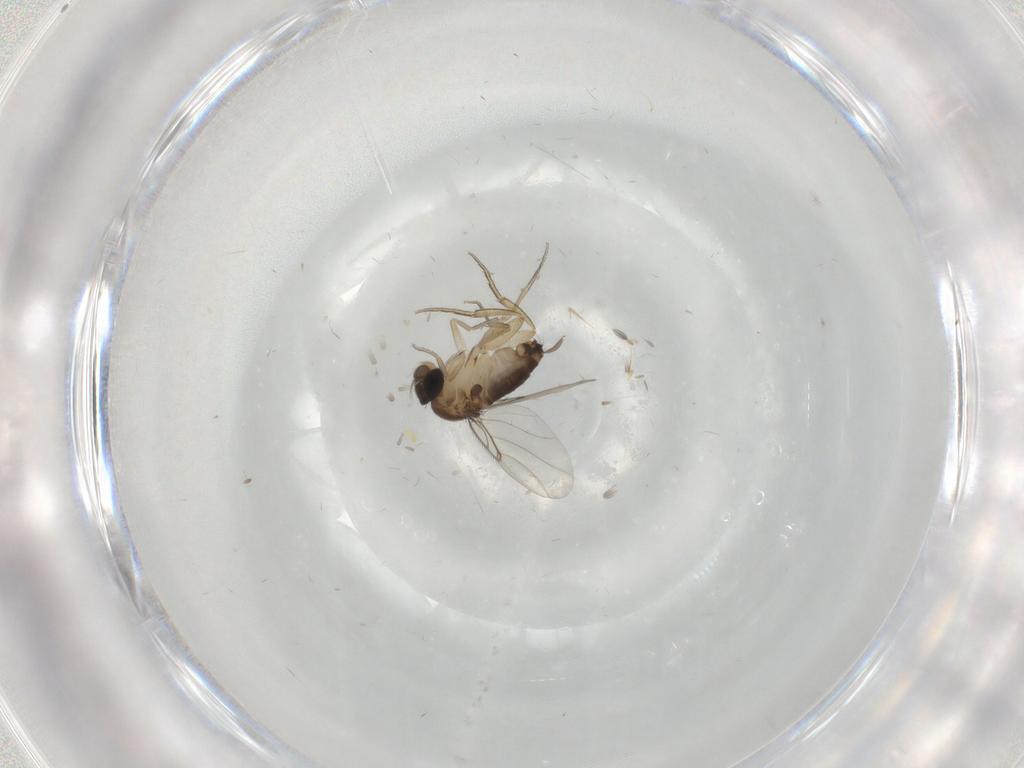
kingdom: Animalia
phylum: Arthropoda
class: Insecta
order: Diptera
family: Phoridae
